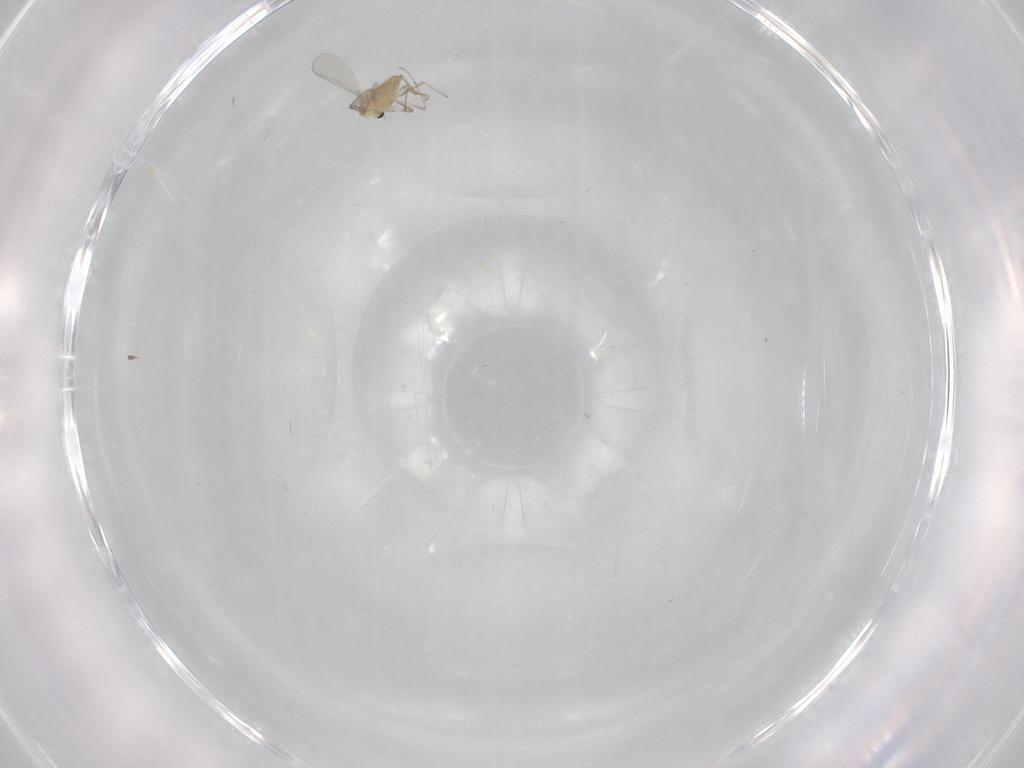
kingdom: Animalia
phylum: Arthropoda
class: Insecta
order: Diptera
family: Chironomidae
